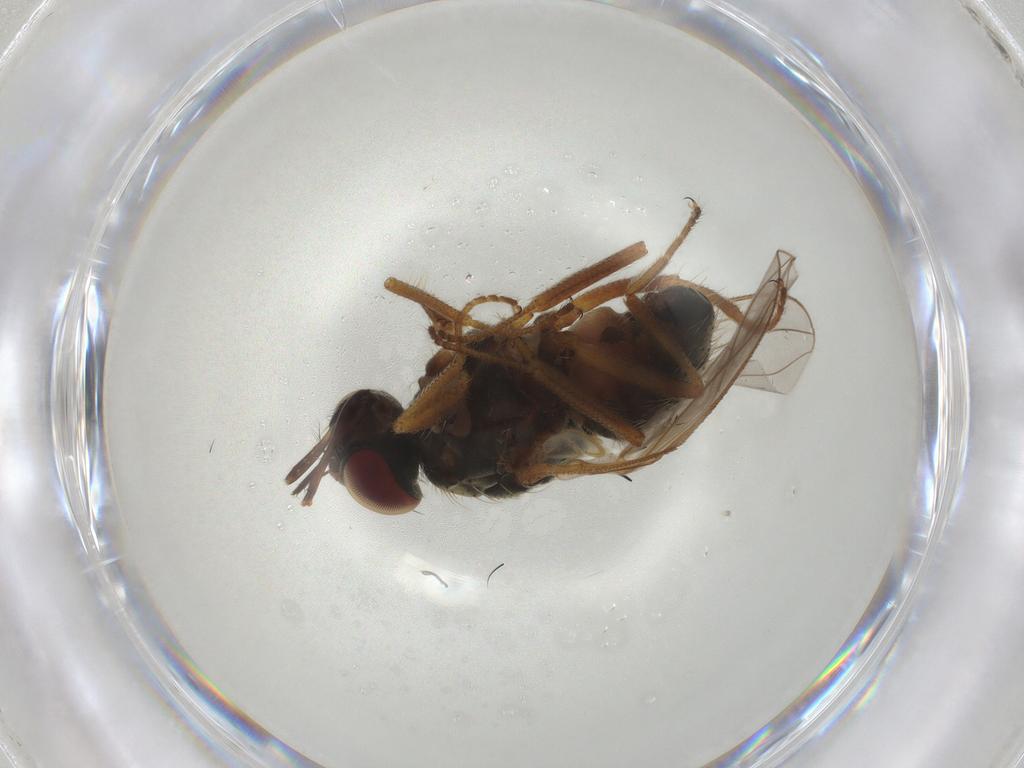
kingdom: Animalia
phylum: Arthropoda
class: Insecta
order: Diptera
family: Muscidae
